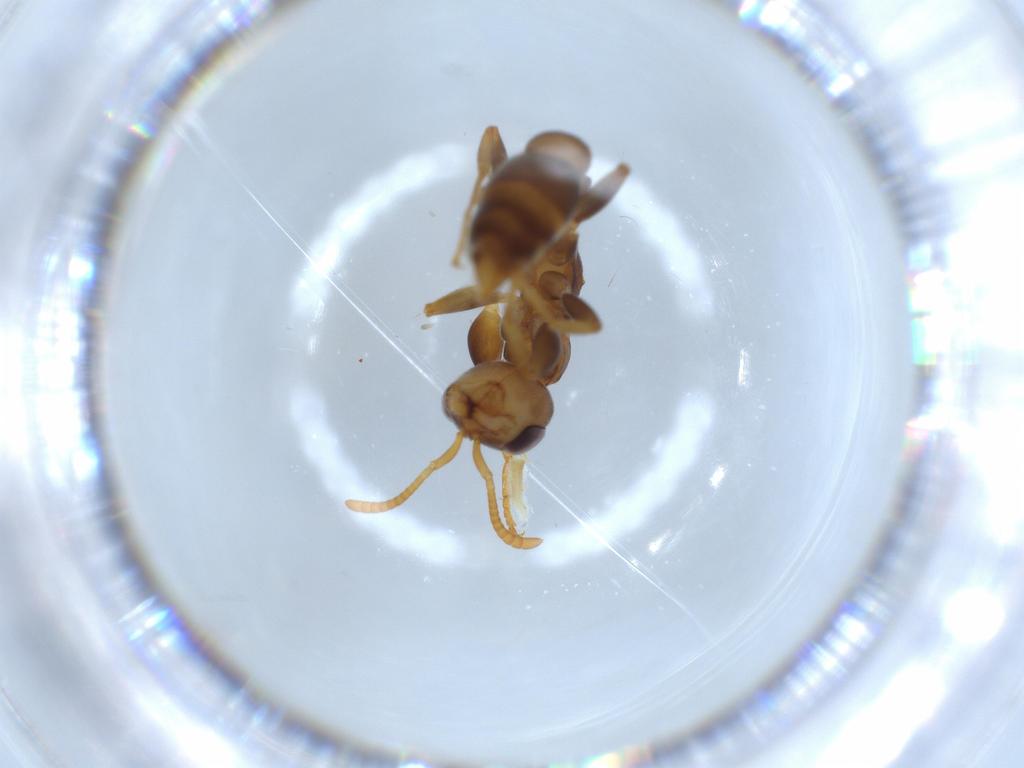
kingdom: Animalia
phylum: Arthropoda
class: Insecta
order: Hymenoptera
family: Formicidae
